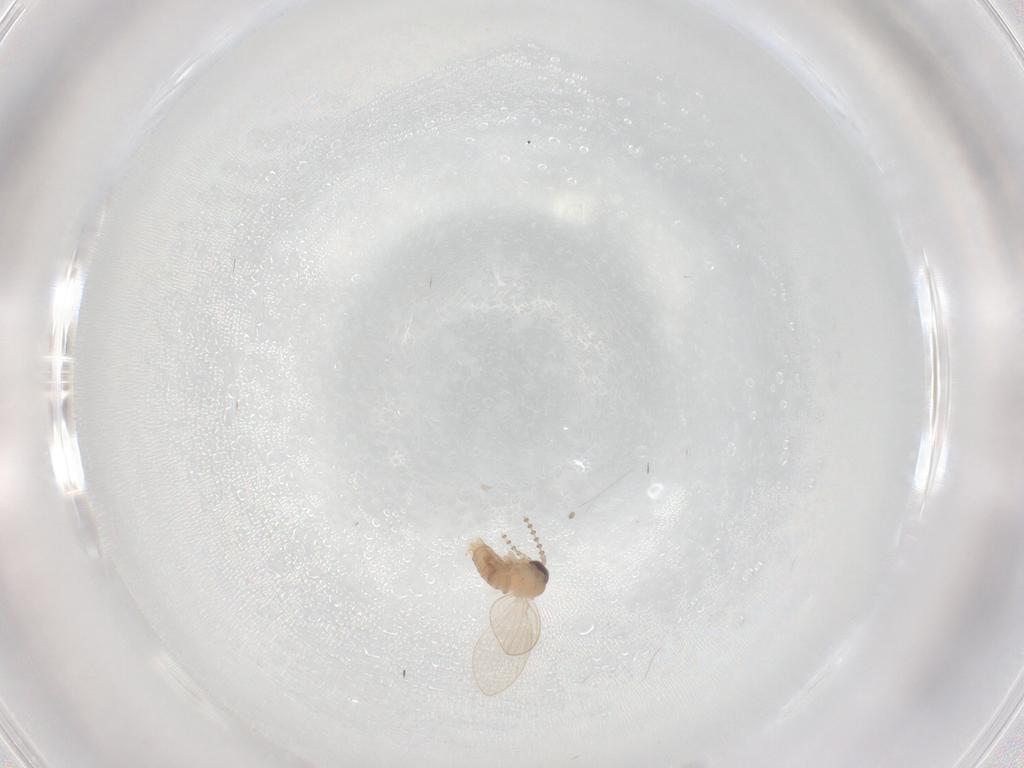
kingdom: Animalia
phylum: Arthropoda
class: Insecta
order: Diptera
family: Psychodidae
